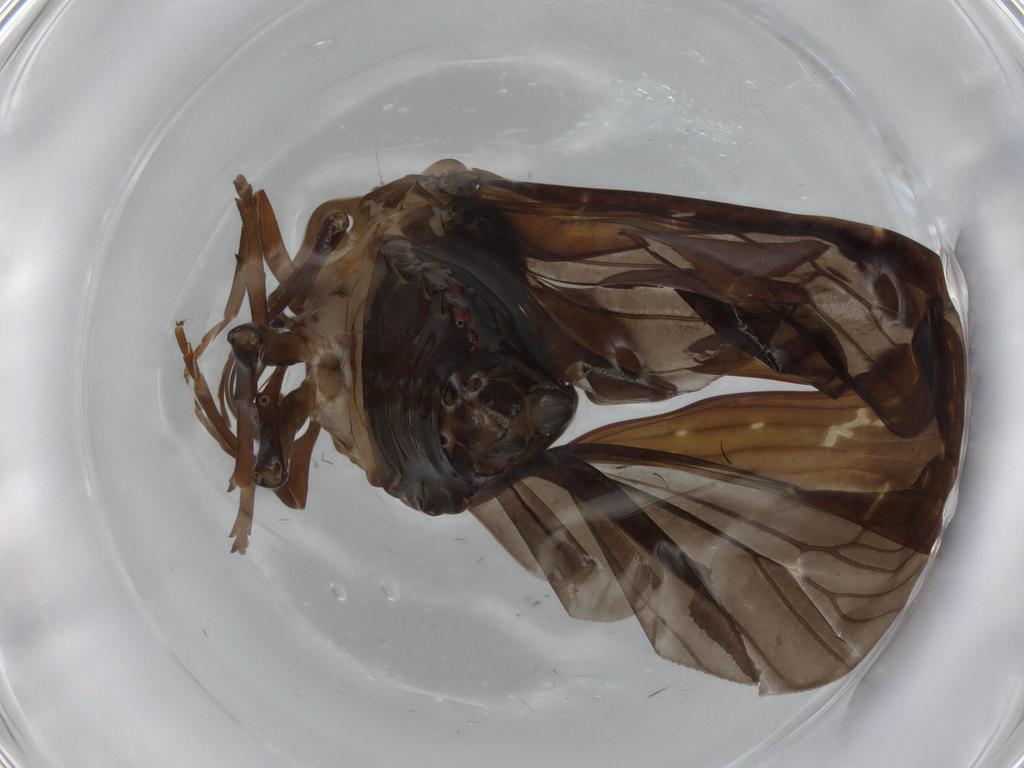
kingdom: Animalia
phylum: Arthropoda
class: Insecta
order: Hemiptera
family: Achilidae
